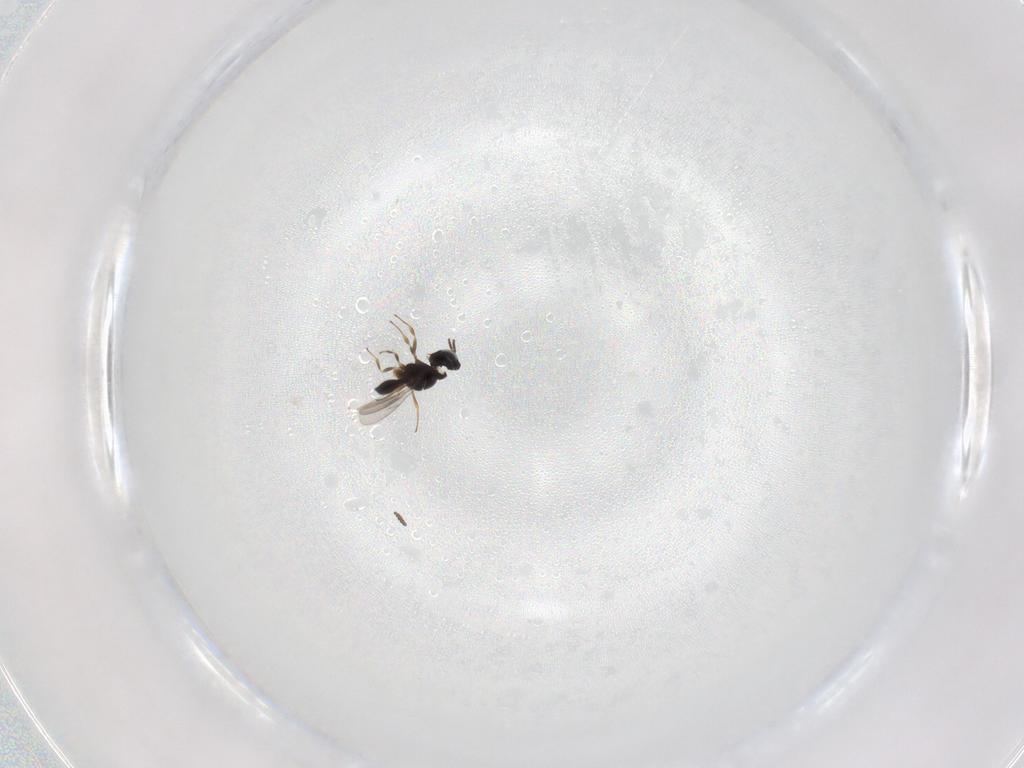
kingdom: Animalia
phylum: Arthropoda
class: Insecta
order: Hymenoptera
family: Scelionidae
